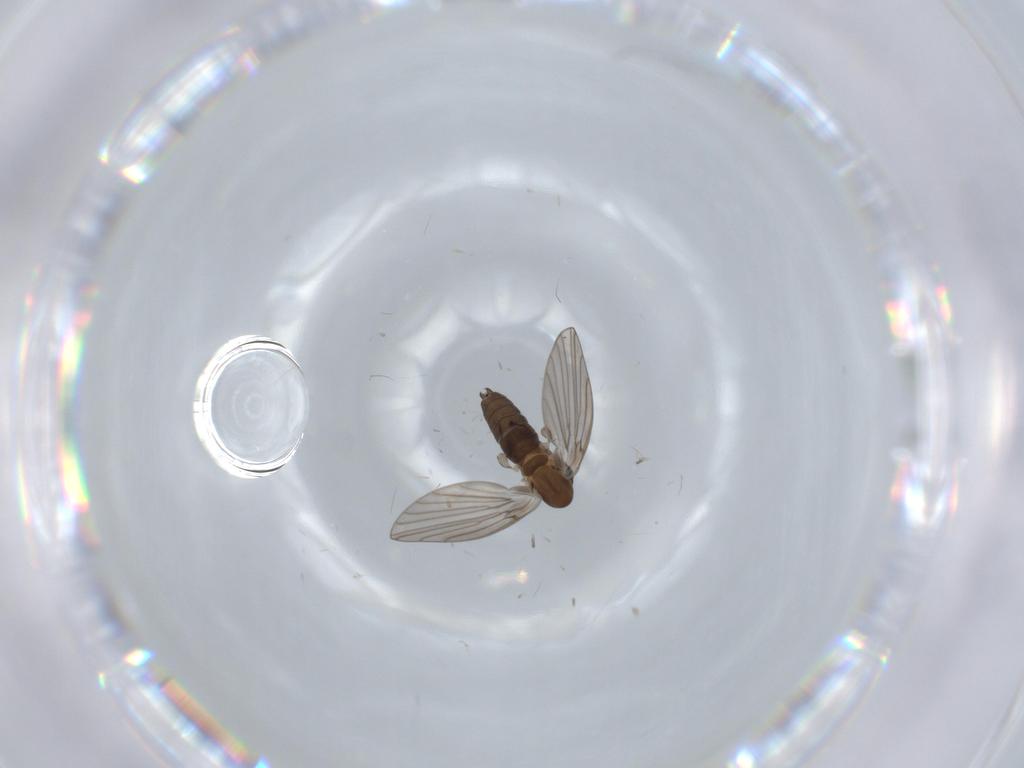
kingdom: Animalia
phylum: Arthropoda
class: Insecta
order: Diptera
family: Psychodidae
